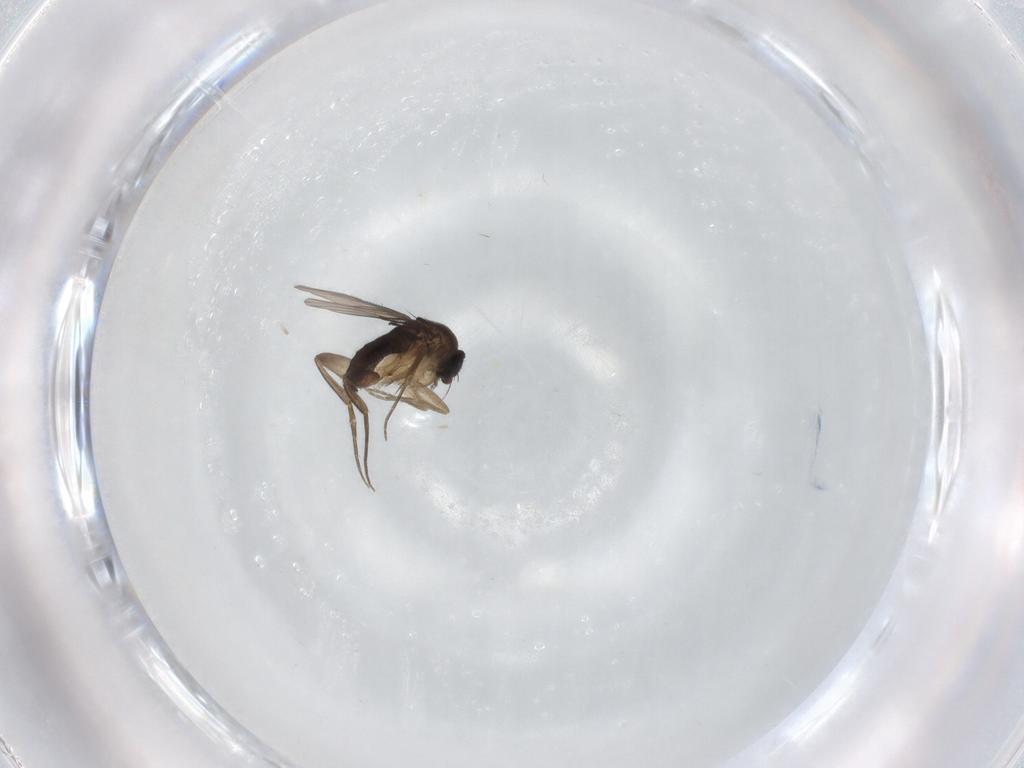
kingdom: Animalia
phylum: Arthropoda
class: Insecta
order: Diptera
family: Phoridae
